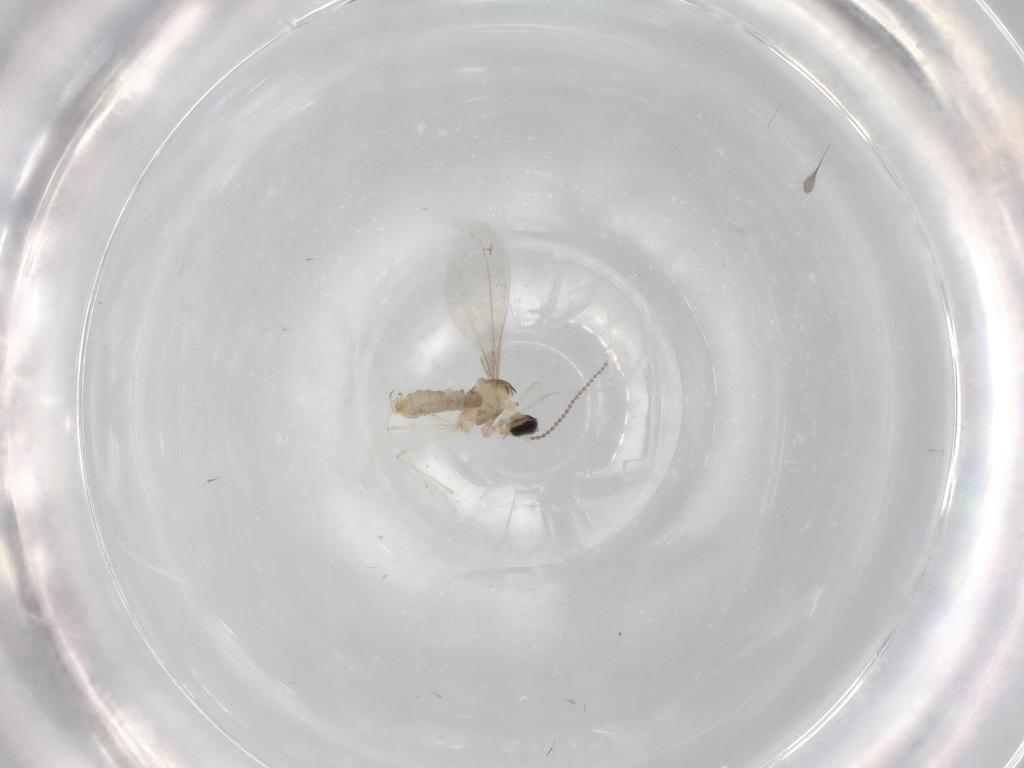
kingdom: Animalia
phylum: Arthropoda
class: Insecta
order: Diptera
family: Cecidomyiidae
